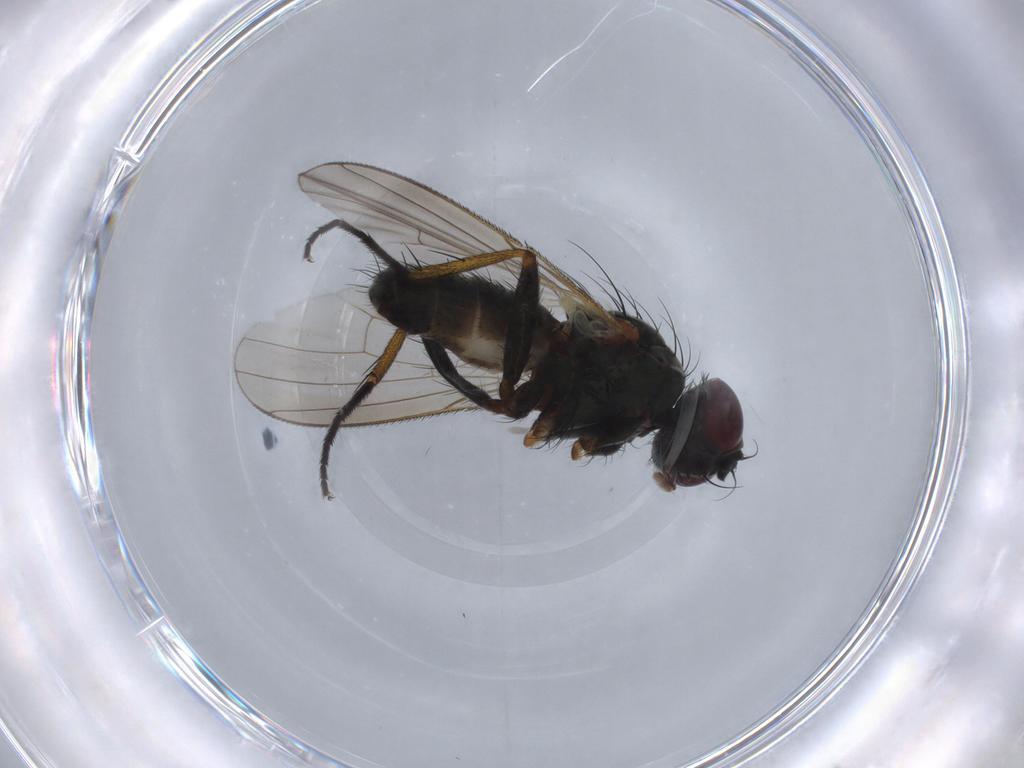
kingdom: Animalia
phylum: Arthropoda
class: Insecta
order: Diptera
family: Muscidae
